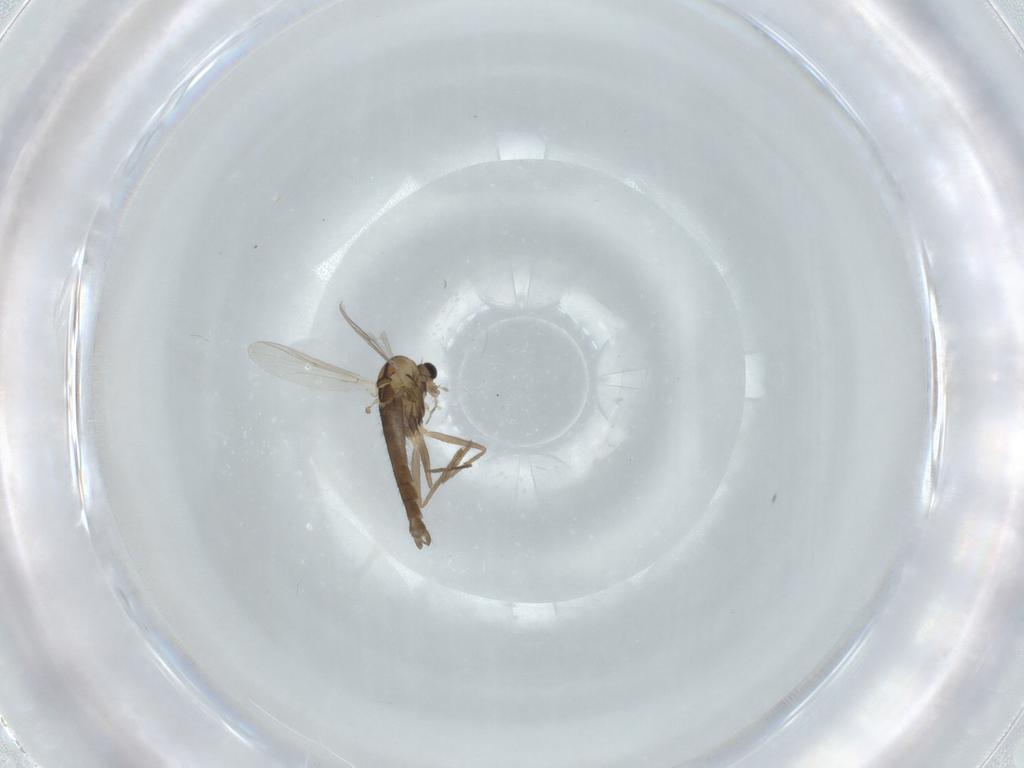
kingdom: Animalia
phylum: Arthropoda
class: Insecta
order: Diptera
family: Chironomidae
